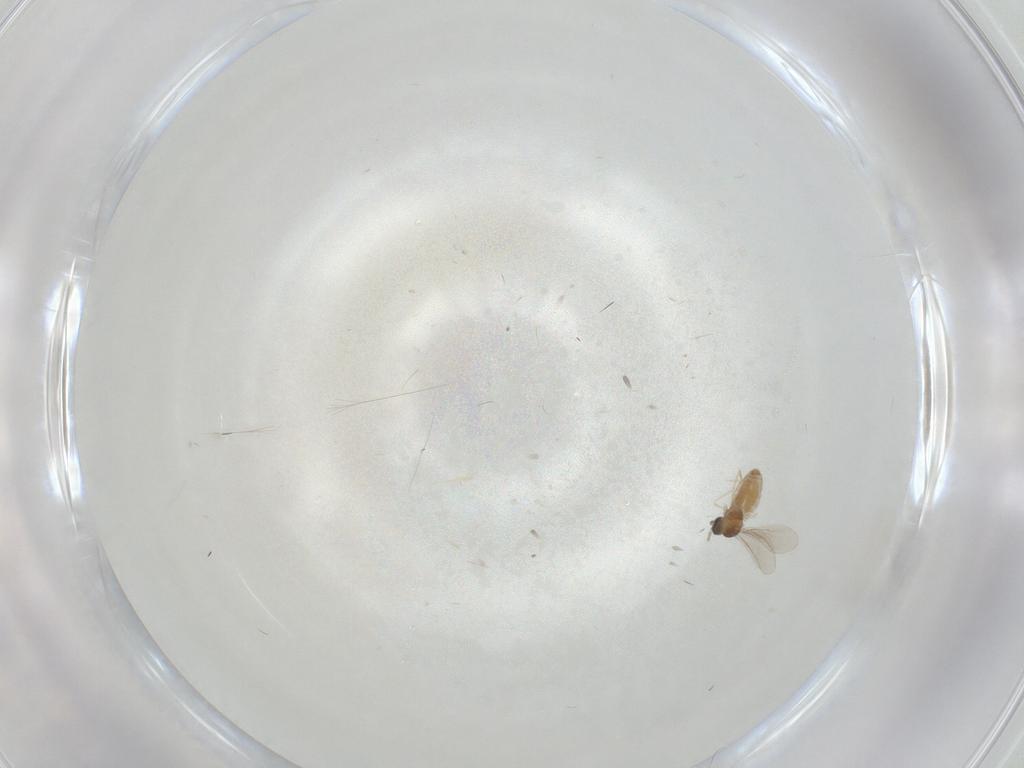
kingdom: Animalia
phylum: Arthropoda
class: Insecta
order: Diptera
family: Cecidomyiidae
